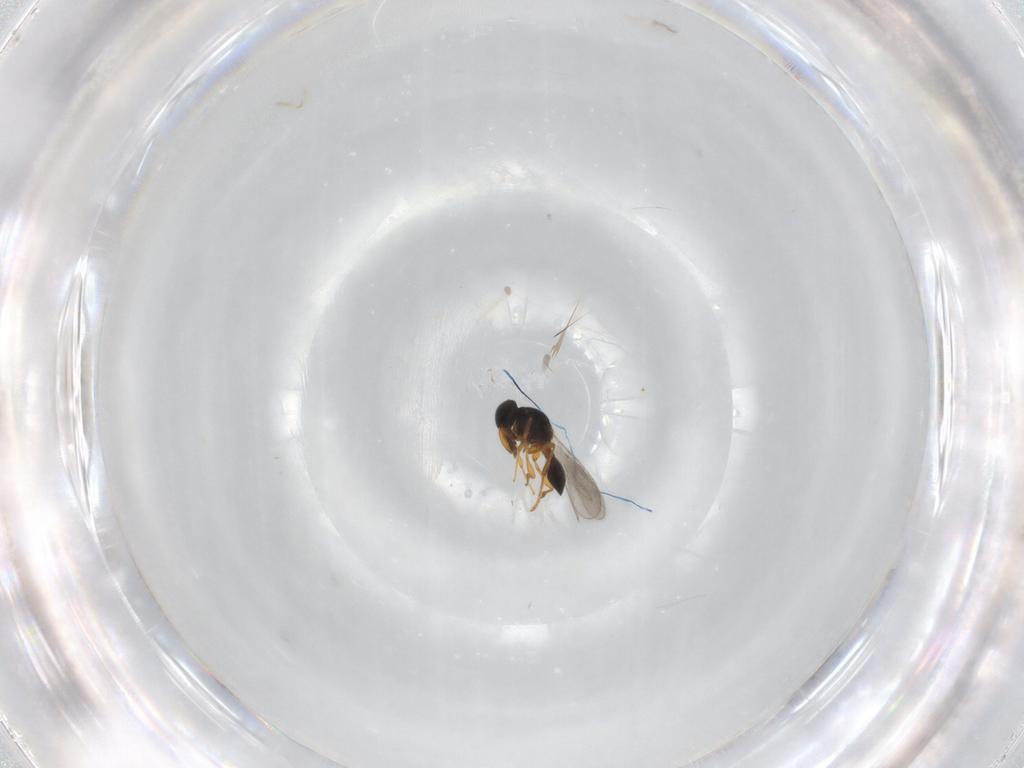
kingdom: Animalia
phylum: Arthropoda
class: Insecta
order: Hymenoptera
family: Platygastridae
